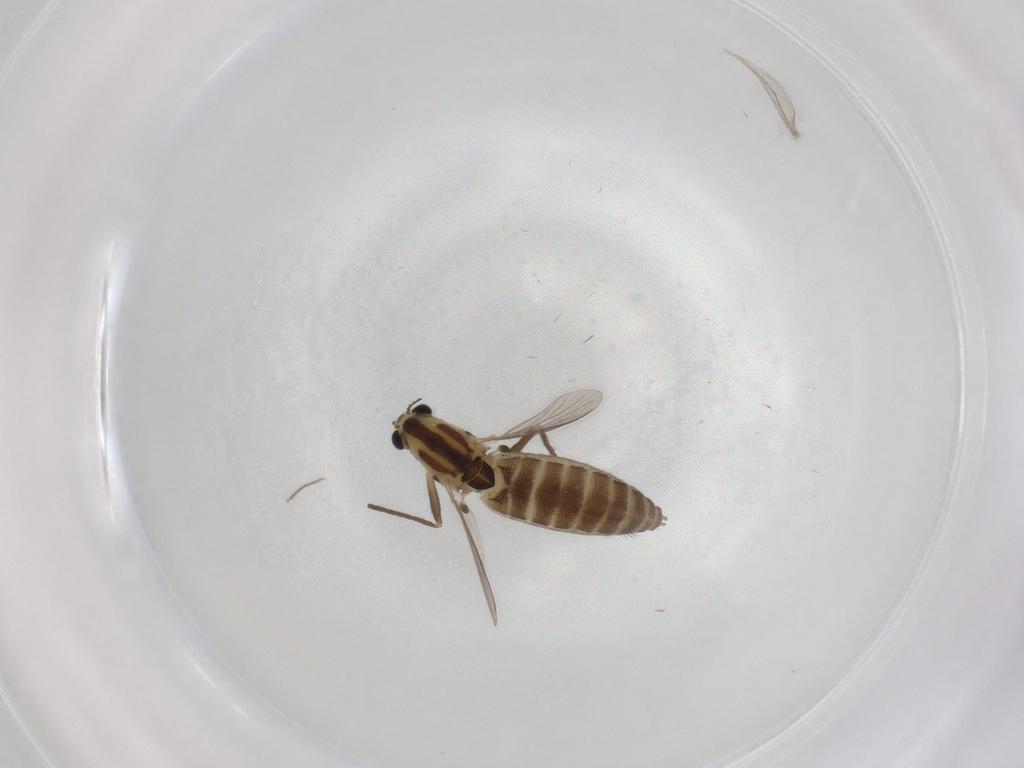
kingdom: Animalia
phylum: Arthropoda
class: Insecta
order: Diptera
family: Chironomidae
